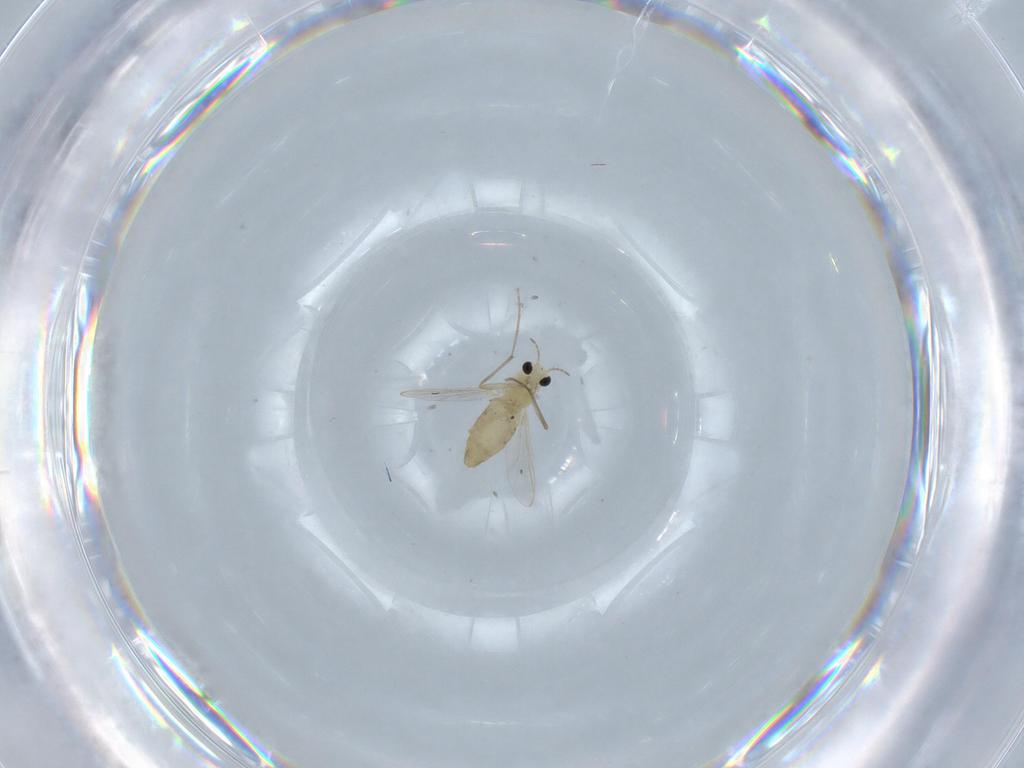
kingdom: Animalia
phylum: Arthropoda
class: Insecta
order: Diptera
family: Chironomidae
